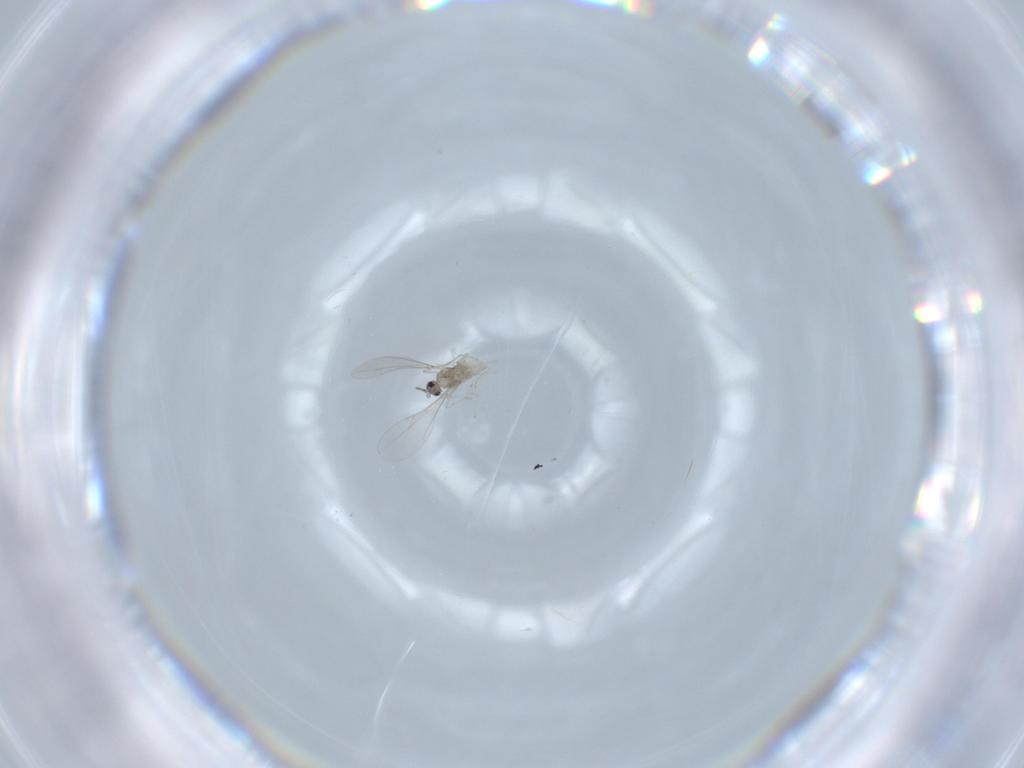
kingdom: Animalia
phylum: Arthropoda
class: Insecta
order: Diptera
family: Cecidomyiidae
